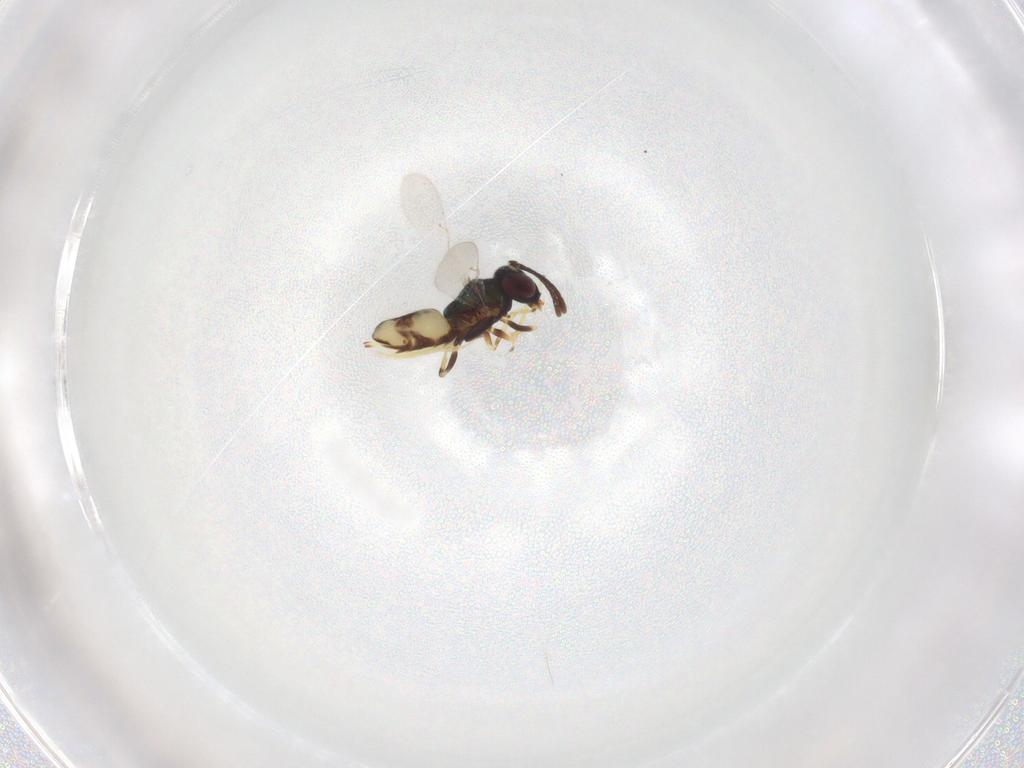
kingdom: Animalia
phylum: Arthropoda
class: Insecta
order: Hymenoptera
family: Encyrtidae
